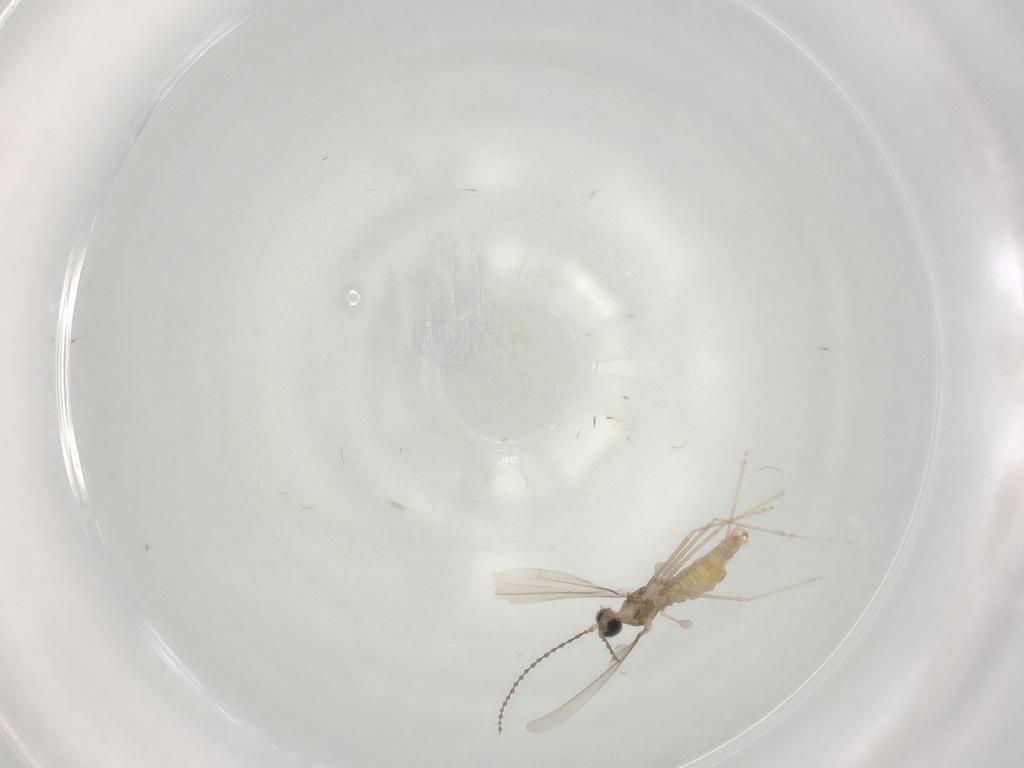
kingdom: Animalia
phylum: Arthropoda
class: Insecta
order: Diptera
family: Cecidomyiidae
